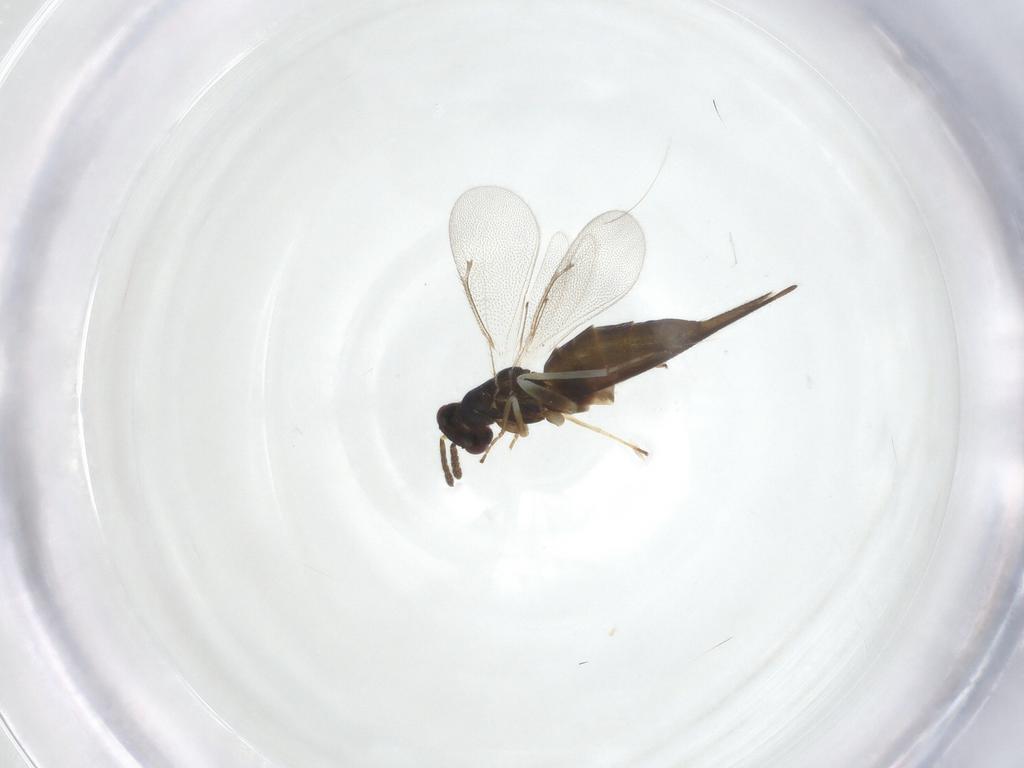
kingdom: Animalia
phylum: Arthropoda
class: Insecta
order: Hymenoptera
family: Eulophidae
